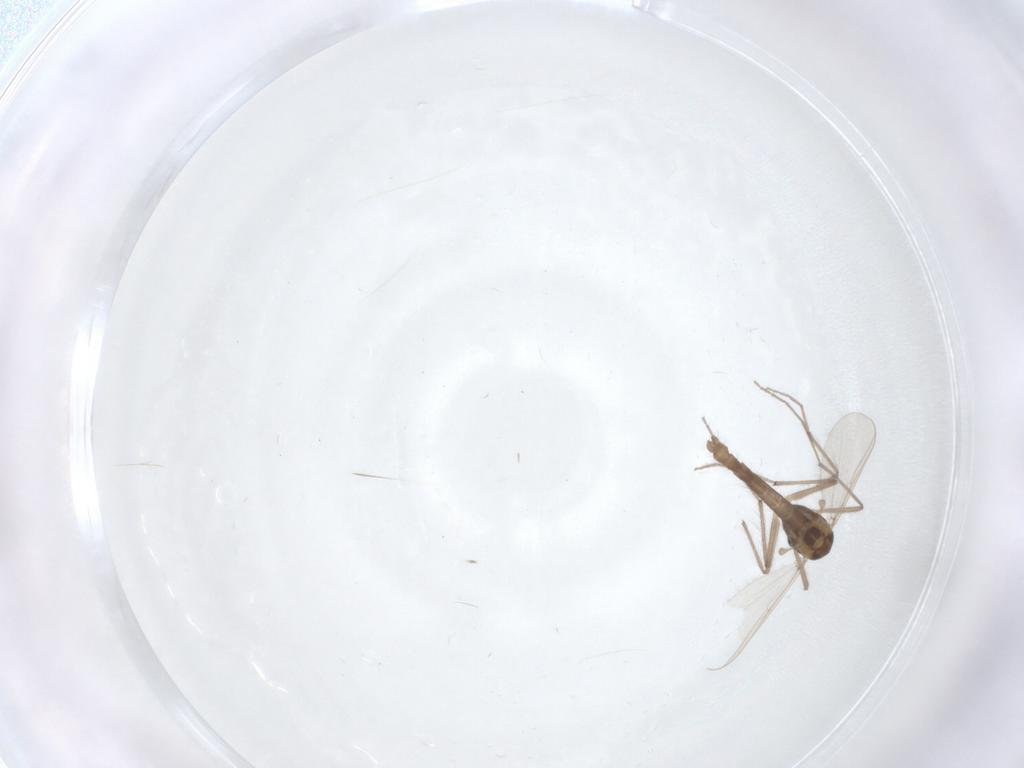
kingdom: Animalia
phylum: Arthropoda
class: Insecta
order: Diptera
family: Chironomidae
